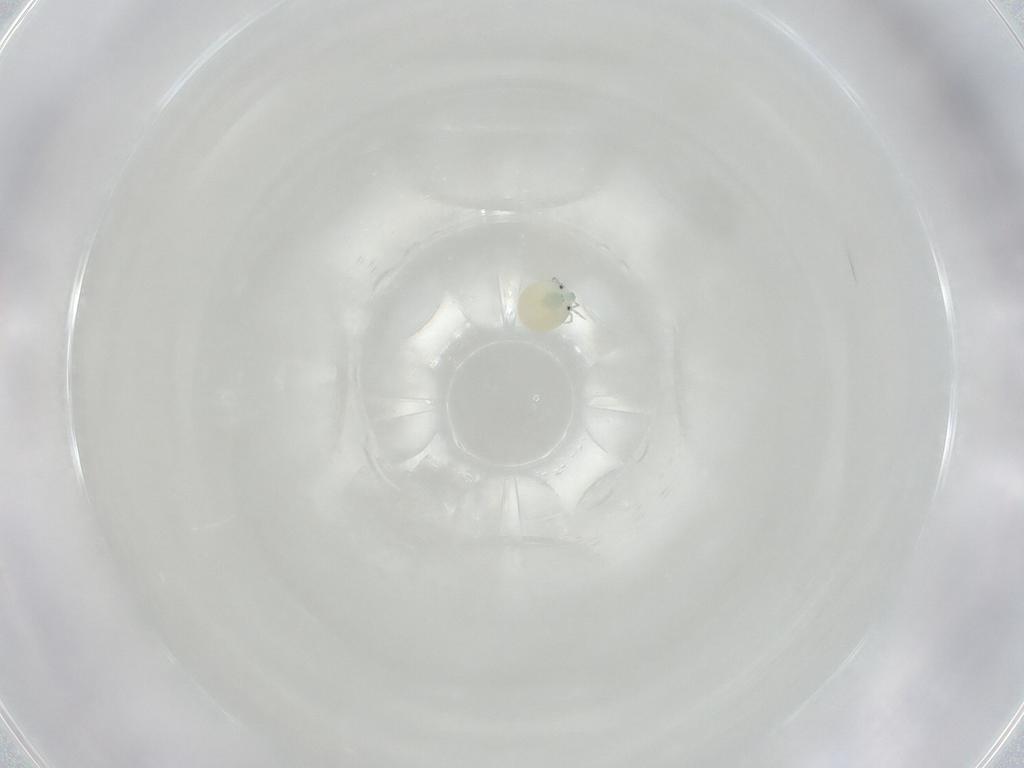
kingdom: Animalia
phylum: Arthropoda
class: Arachnida
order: Trombidiformes
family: Arrenuridae
